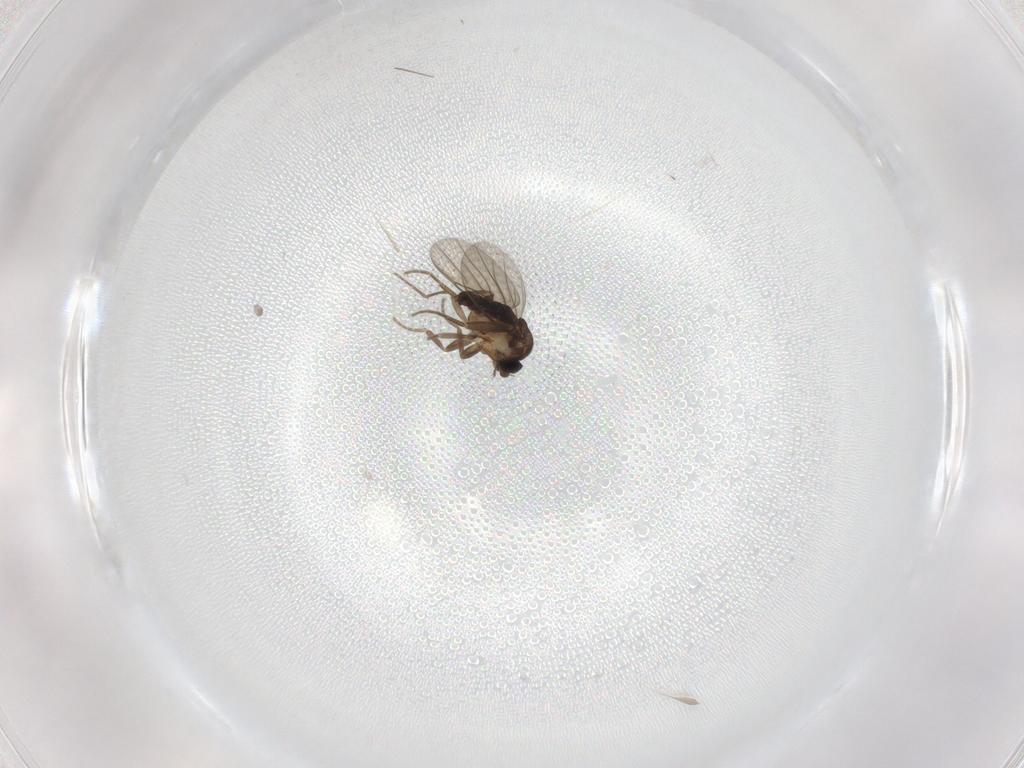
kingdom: Animalia
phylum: Arthropoda
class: Insecta
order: Diptera
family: Phoridae
